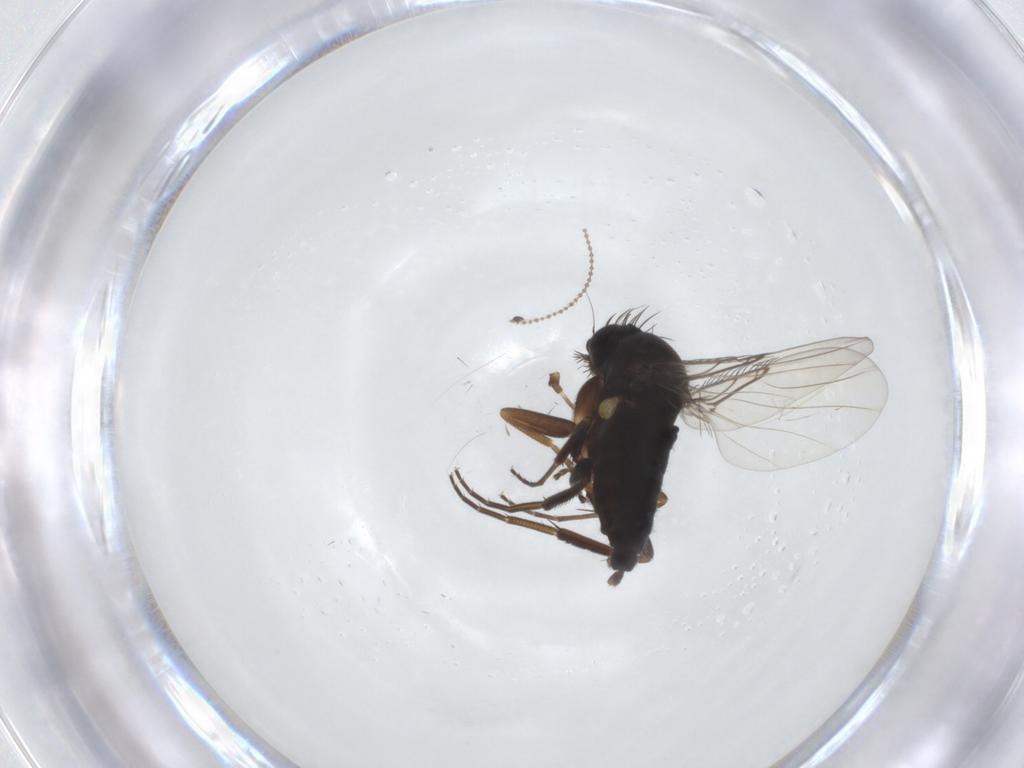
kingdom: Animalia
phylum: Arthropoda
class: Insecta
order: Diptera
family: Phoridae
